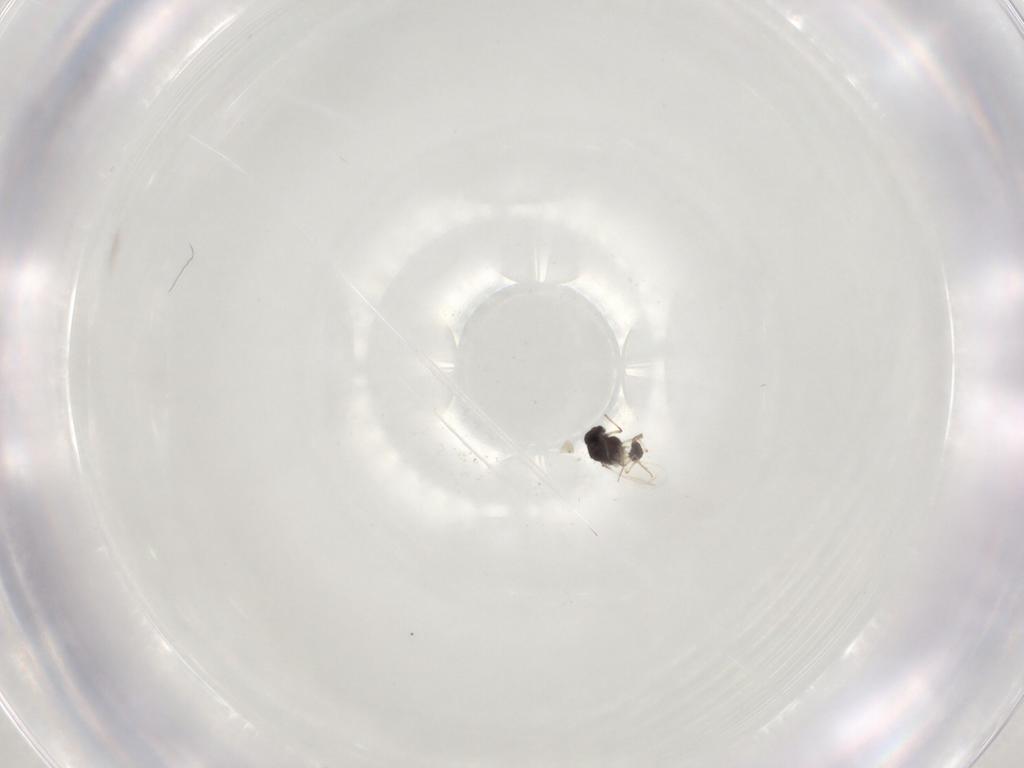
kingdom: Animalia
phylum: Arthropoda
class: Insecta
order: Diptera
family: Chironomidae
